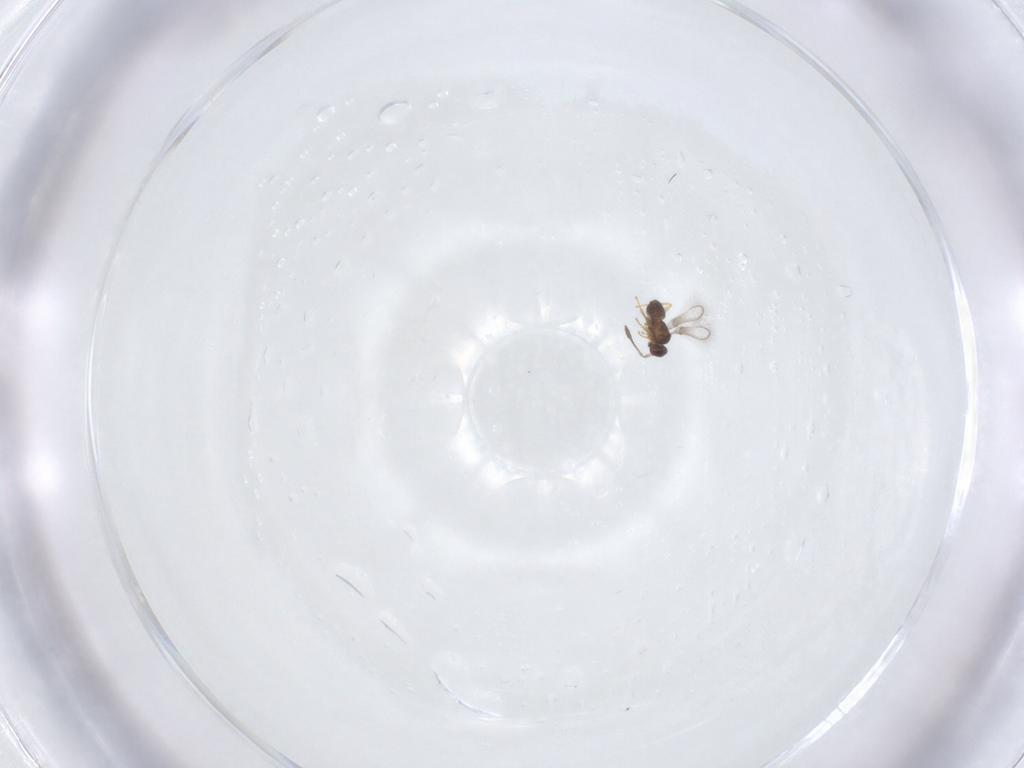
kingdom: Animalia
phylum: Arthropoda
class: Insecta
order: Hymenoptera
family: Mymaridae
